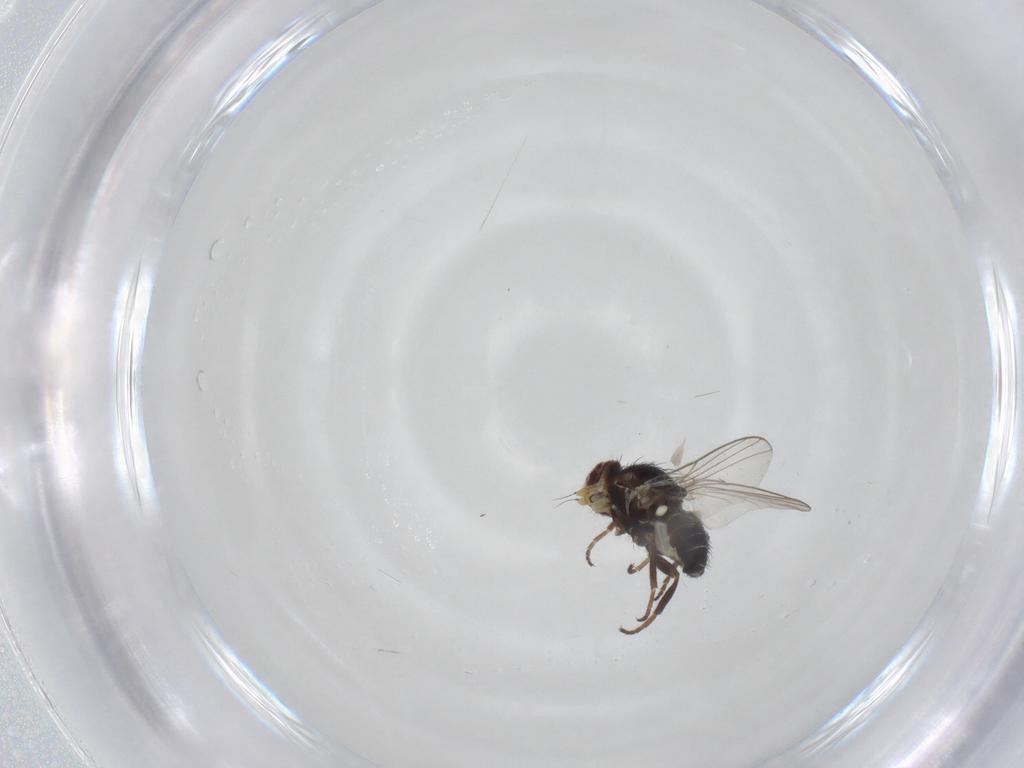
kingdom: Animalia
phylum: Arthropoda
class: Insecta
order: Diptera
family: Agromyzidae
